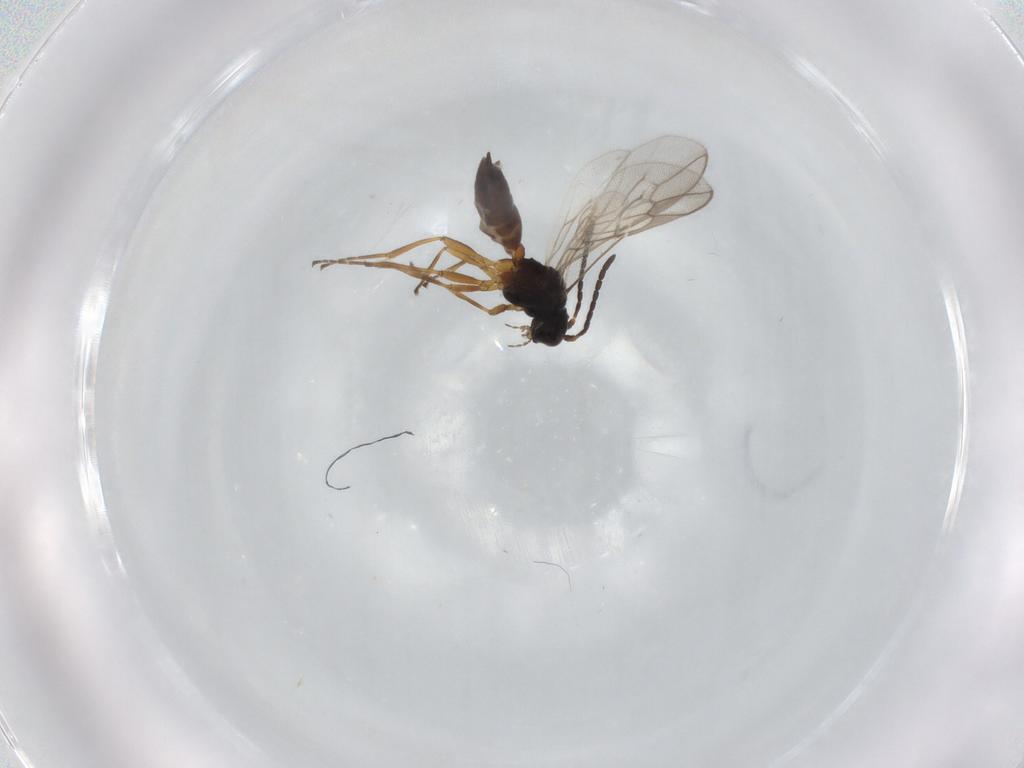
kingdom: Animalia
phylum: Arthropoda
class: Insecta
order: Hymenoptera
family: Braconidae
